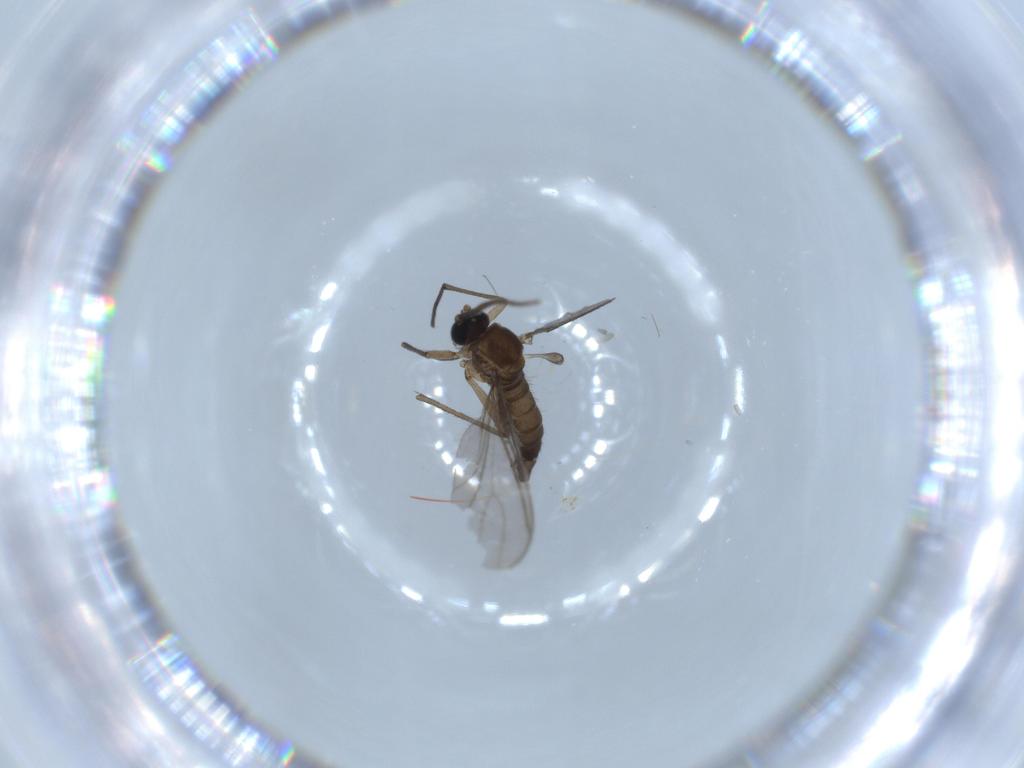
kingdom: Animalia
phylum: Arthropoda
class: Insecta
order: Diptera
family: Sciaridae
